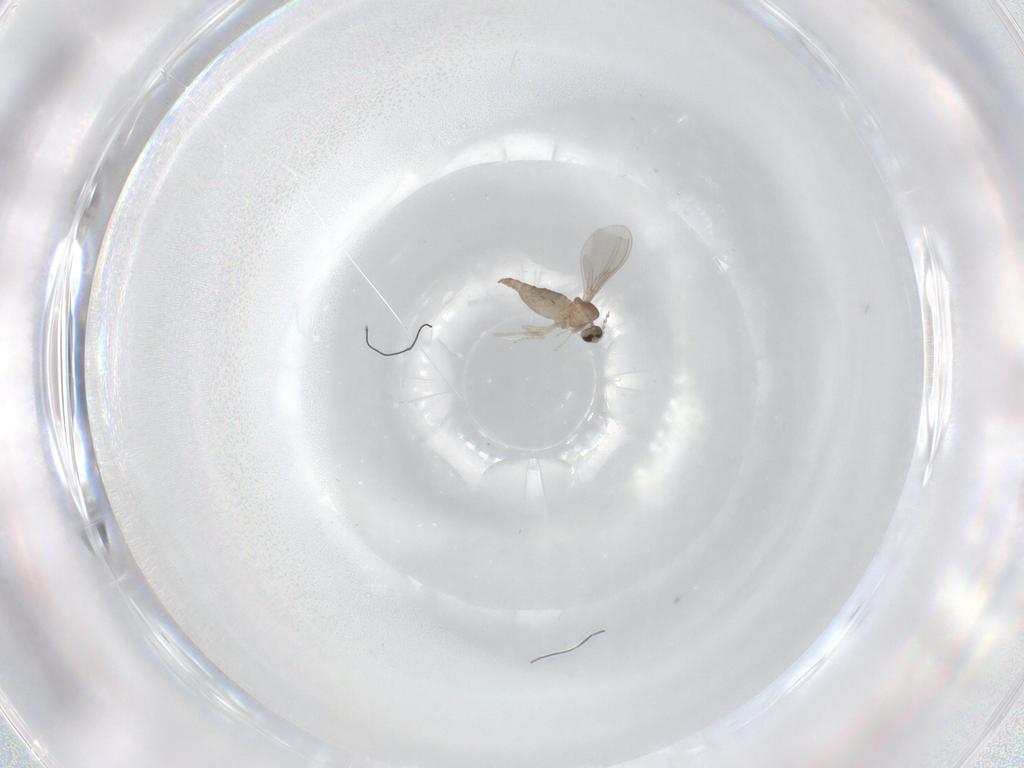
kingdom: Animalia
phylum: Arthropoda
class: Insecta
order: Diptera
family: Cecidomyiidae
